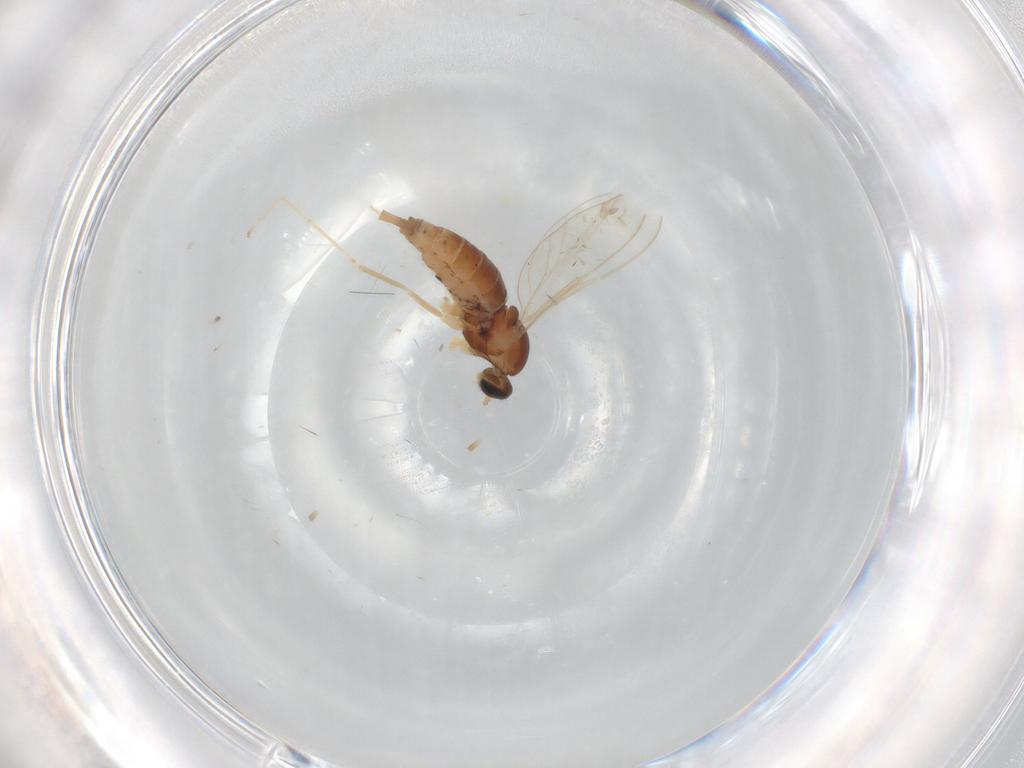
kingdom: Animalia
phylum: Arthropoda
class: Insecta
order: Diptera
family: Cecidomyiidae
